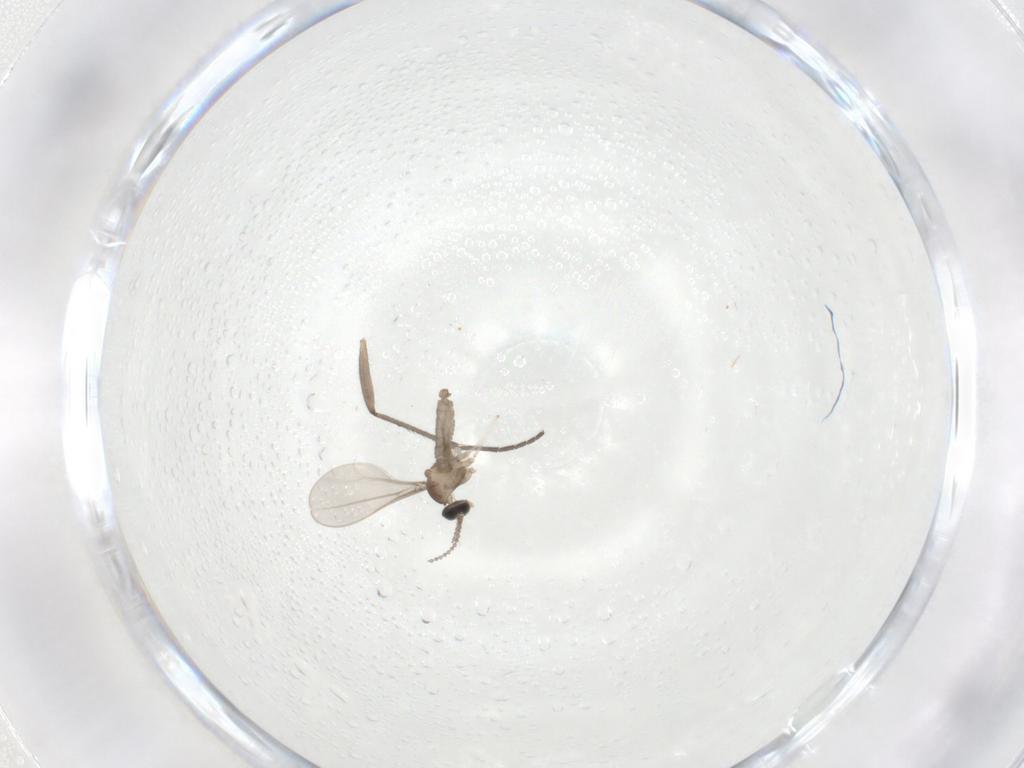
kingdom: Animalia
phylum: Arthropoda
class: Insecta
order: Diptera
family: Cecidomyiidae
